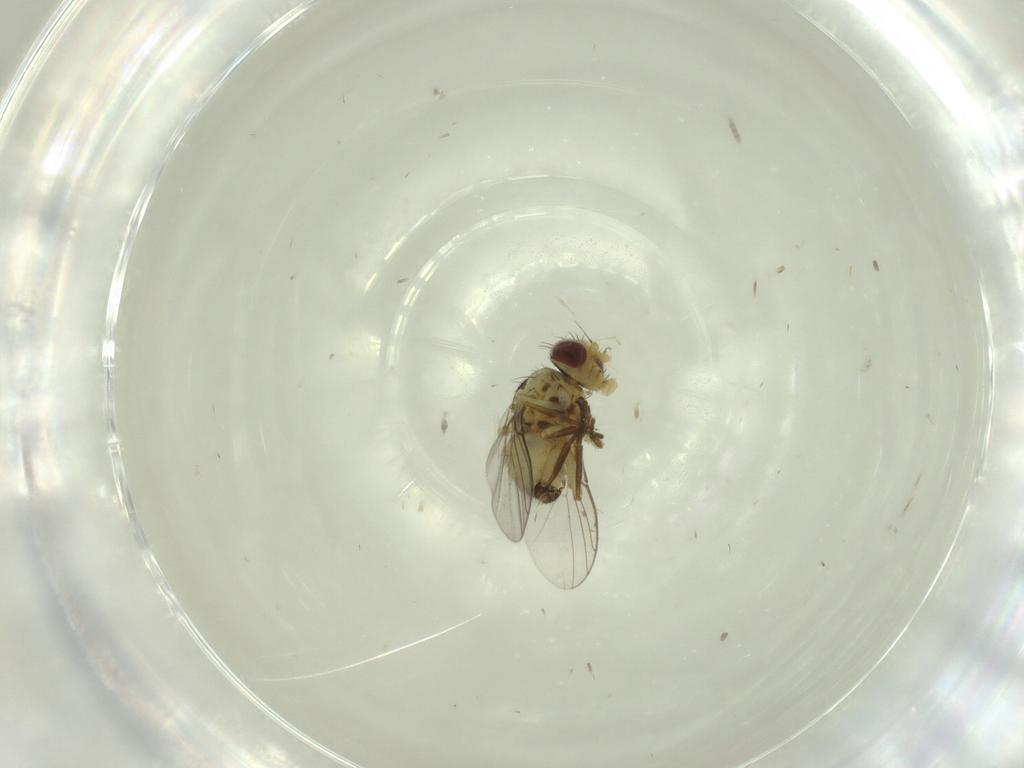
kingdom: Animalia
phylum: Arthropoda
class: Insecta
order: Diptera
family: Agromyzidae
